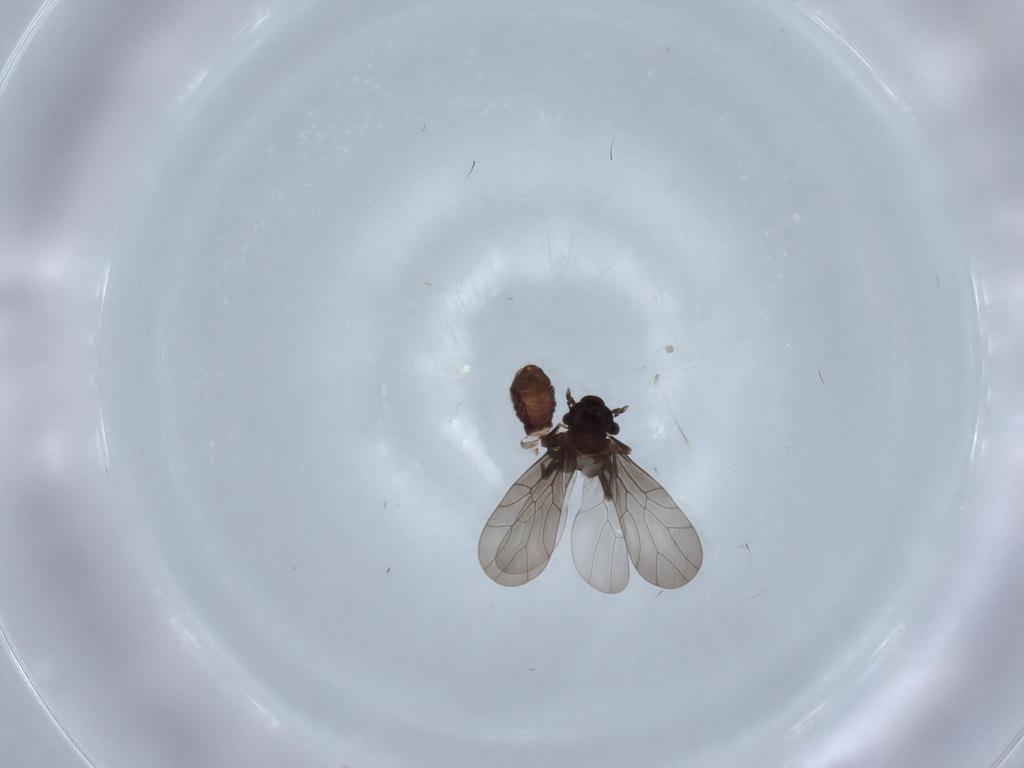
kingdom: Animalia
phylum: Arthropoda
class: Insecta
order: Psocodea
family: Lepidopsocidae
